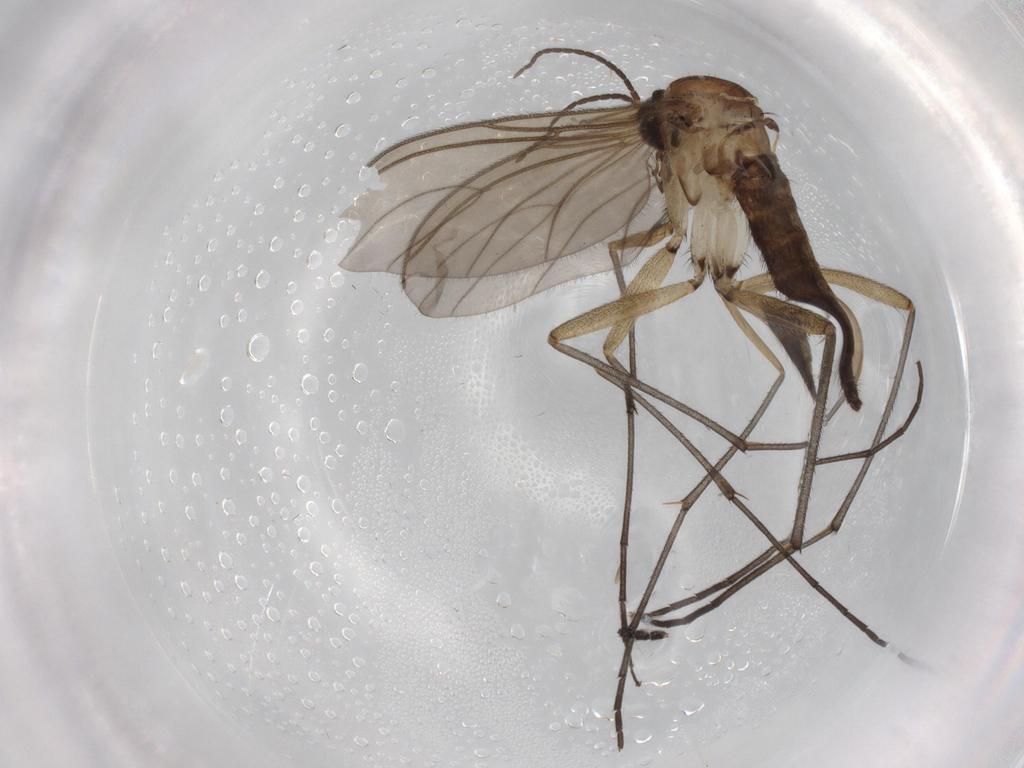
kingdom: Animalia
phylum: Arthropoda
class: Insecta
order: Diptera
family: Sciaridae
